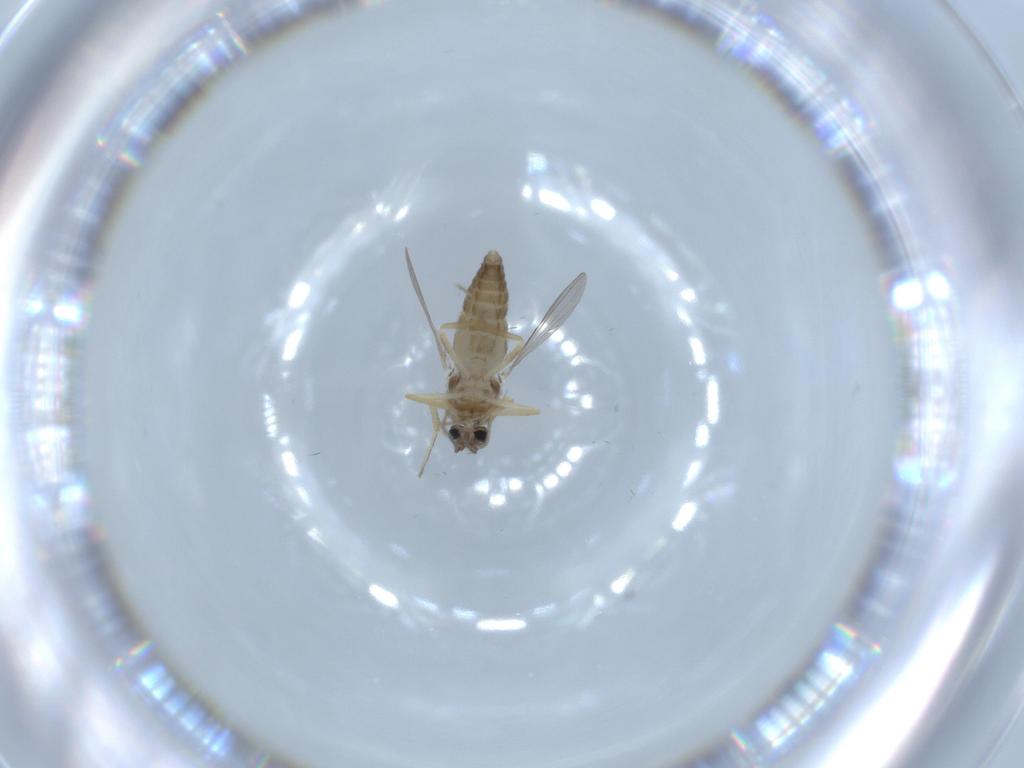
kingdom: Animalia
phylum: Arthropoda
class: Insecta
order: Diptera
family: Ceratopogonidae
